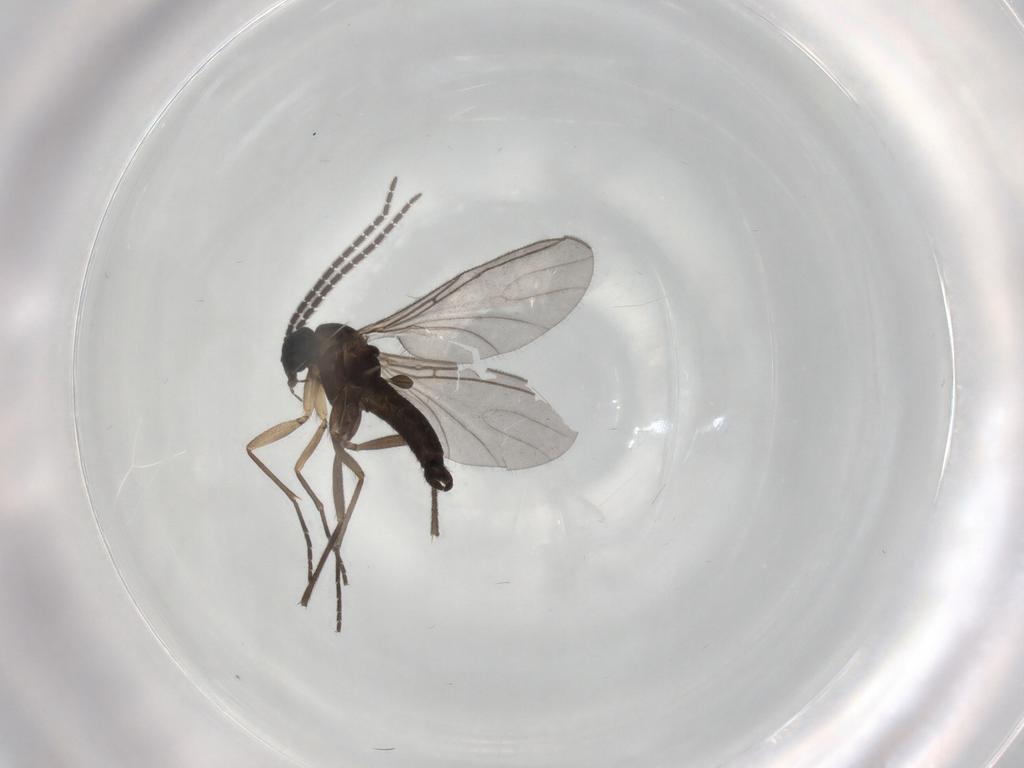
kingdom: Animalia
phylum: Arthropoda
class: Insecta
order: Diptera
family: Sciaridae
